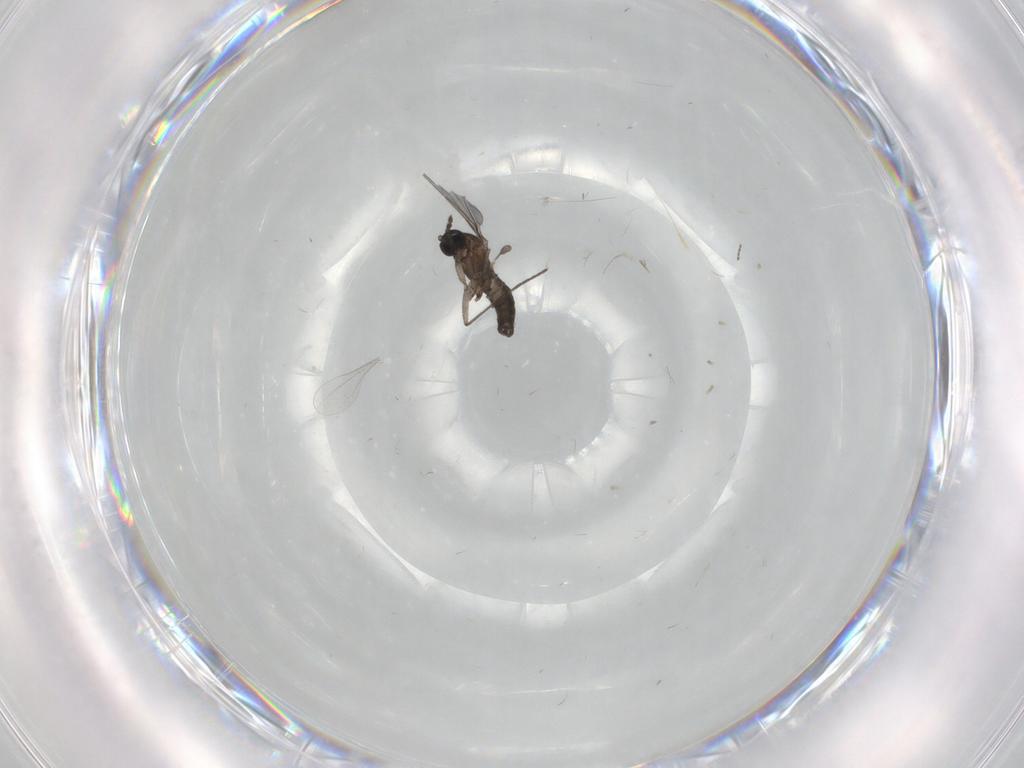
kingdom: Animalia
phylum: Arthropoda
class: Insecta
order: Diptera
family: Sciaridae
